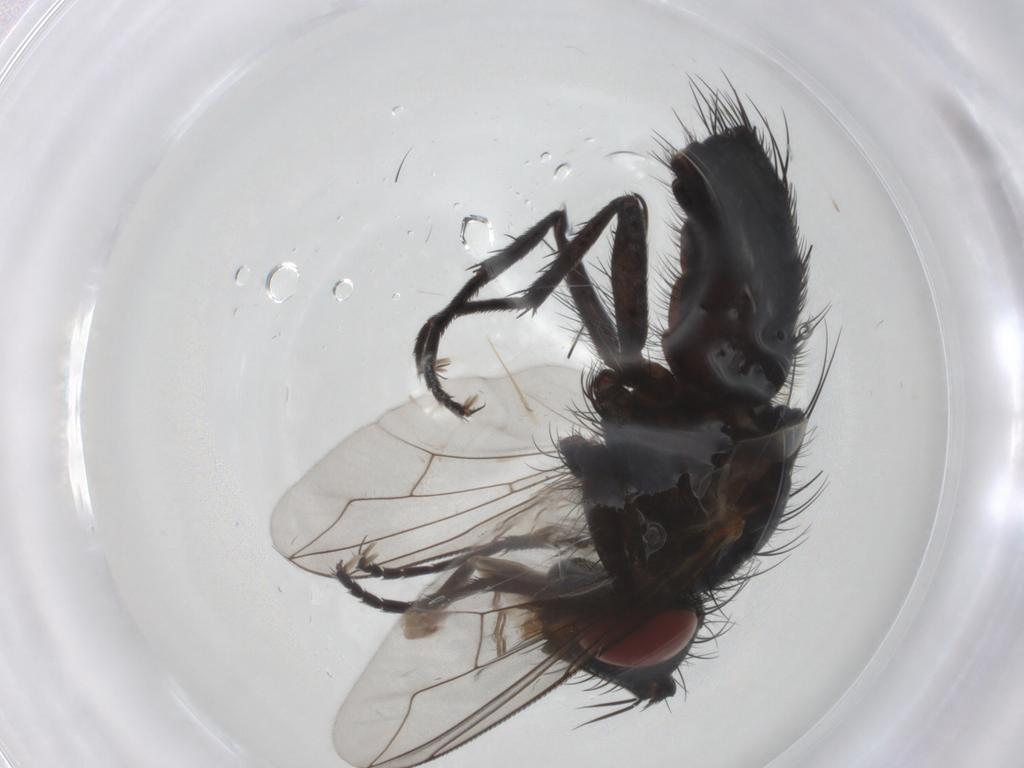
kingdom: Animalia
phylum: Arthropoda
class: Insecta
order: Diptera
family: Tachinidae
